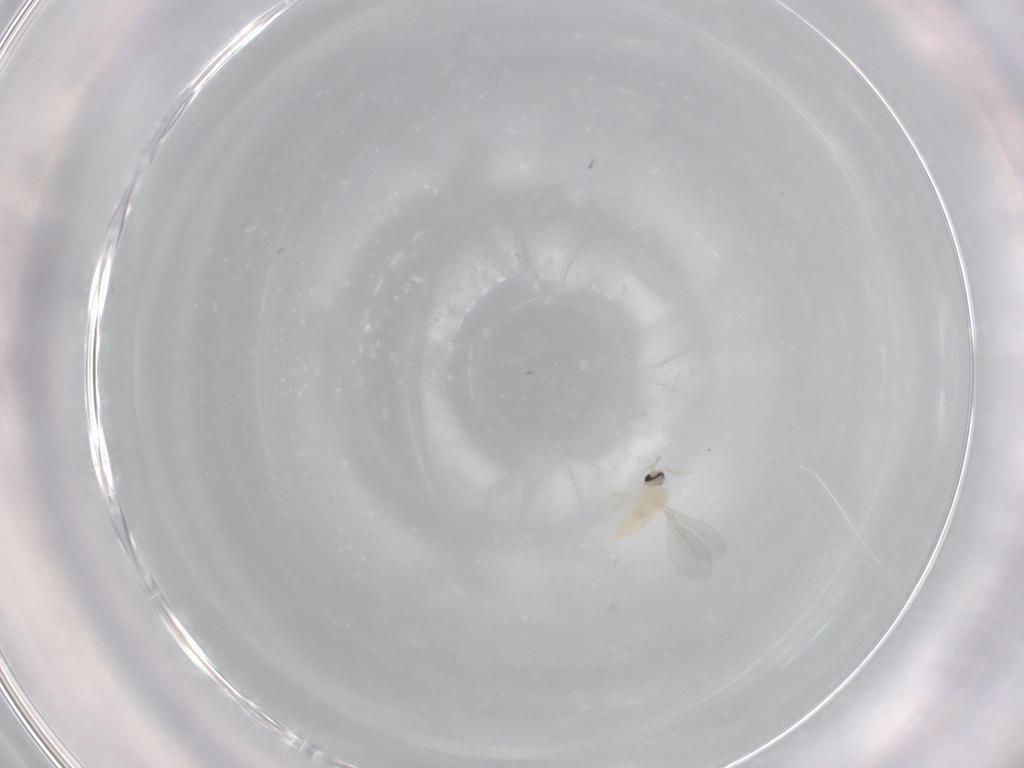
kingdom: Animalia
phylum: Arthropoda
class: Insecta
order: Diptera
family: Cecidomyiidae
